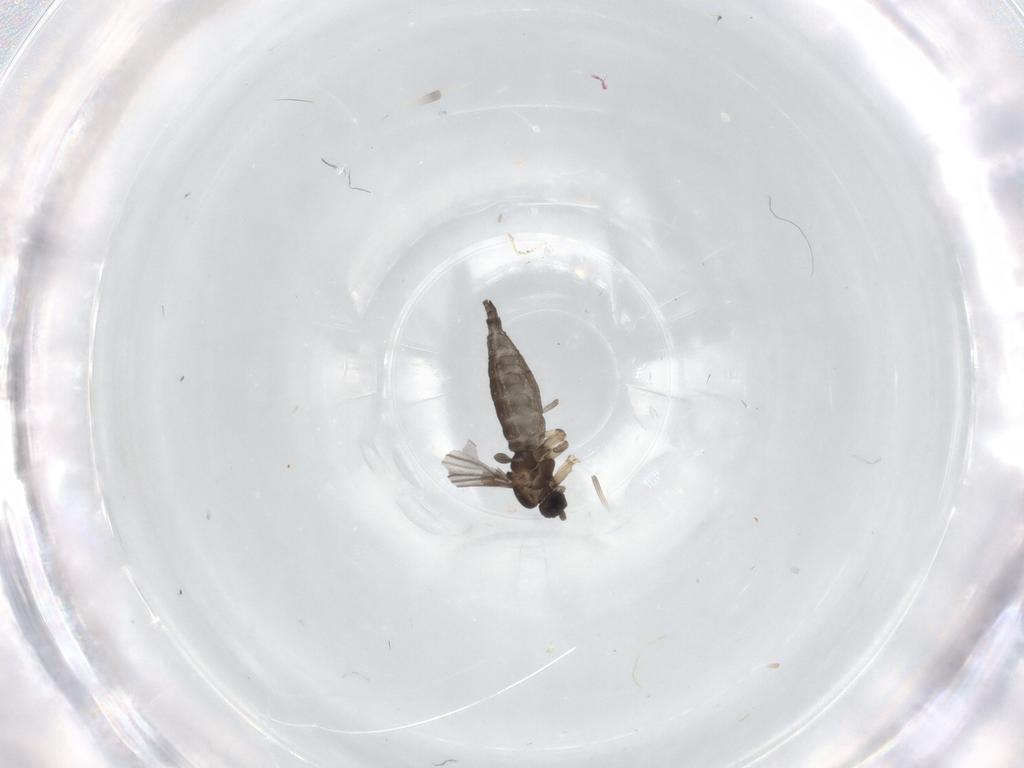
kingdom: Animalia
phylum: Arthropoda
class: Insecta
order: Diptera
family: Sciaridae
